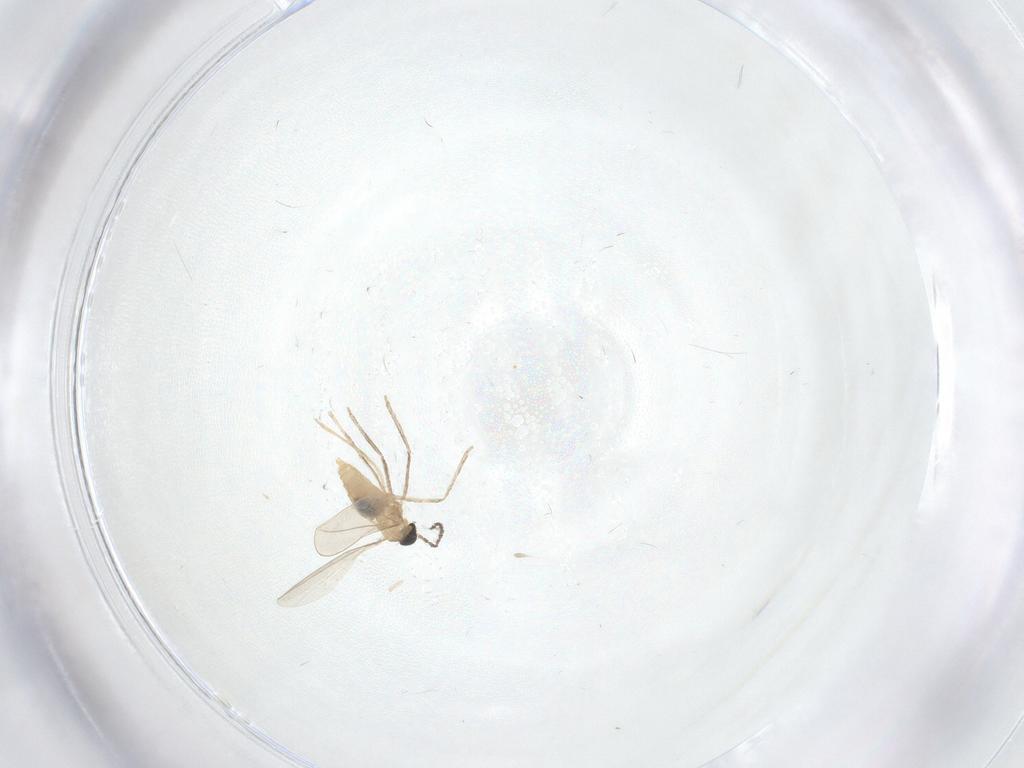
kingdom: Animalia
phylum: Arthropoda
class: Insecta
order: Diptera
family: Cecidomyiidae
